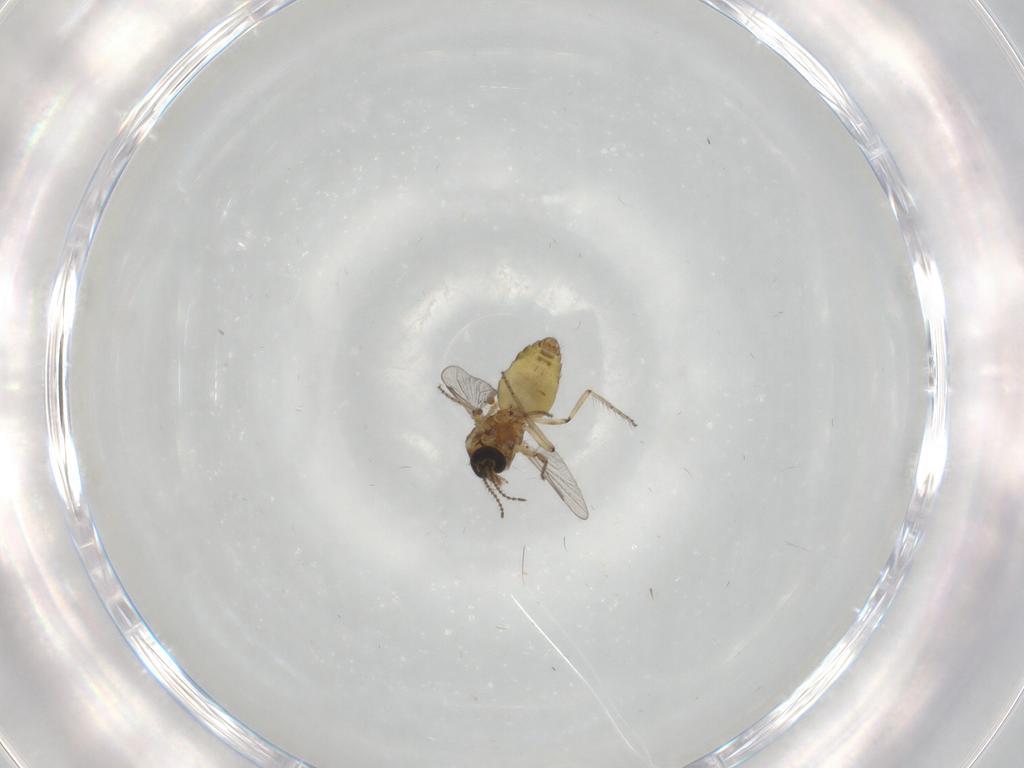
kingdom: Animalia
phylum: Arthropoda
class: Insecta
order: Diptera
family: Ceratopogonidae
